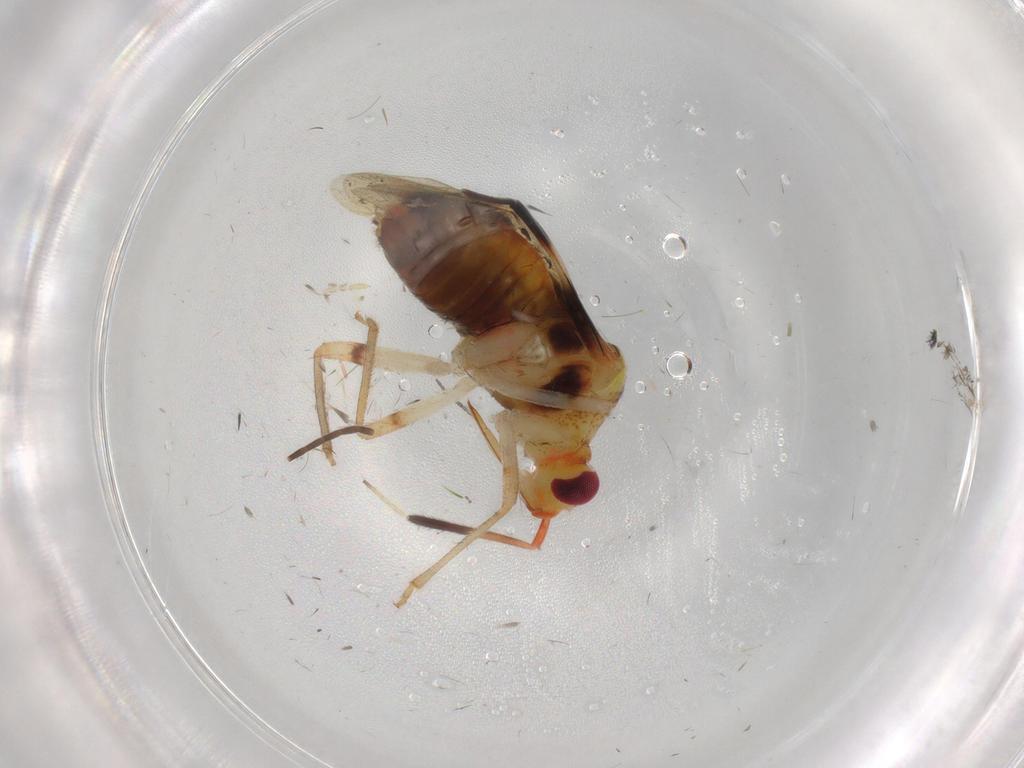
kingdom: Animalia
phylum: Arthropoda
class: Insecta
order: Hemiptera
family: Miridae
